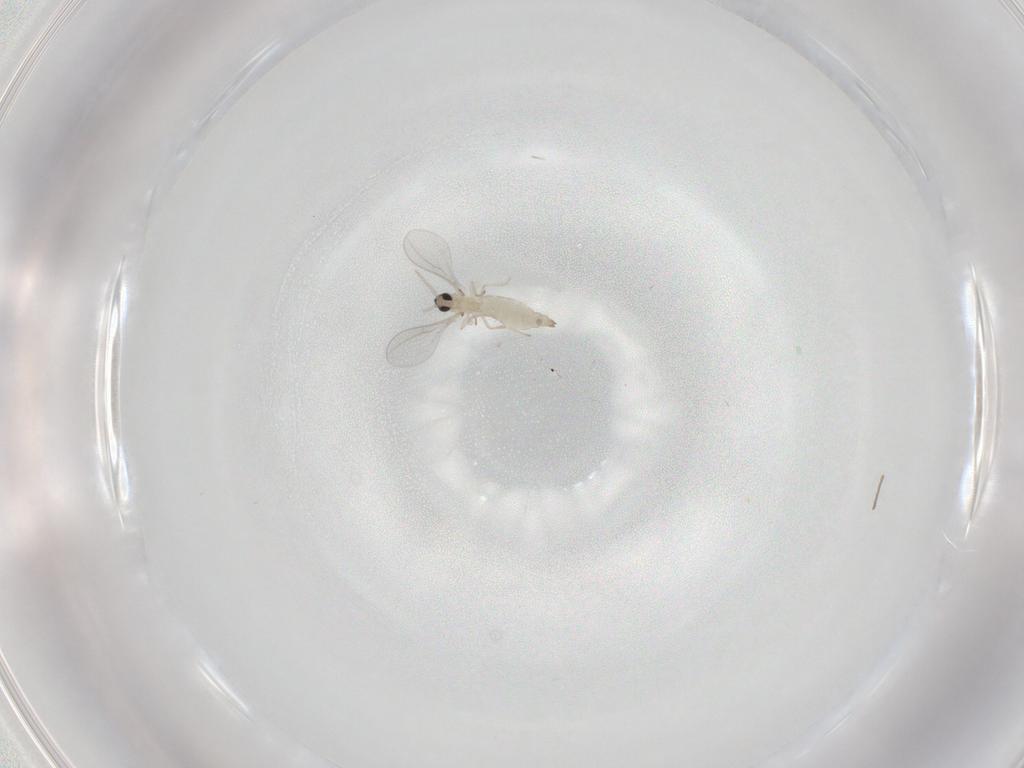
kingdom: Animalia
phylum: Arthropoda
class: Insecta
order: Diptera
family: Cecidomyiidae
